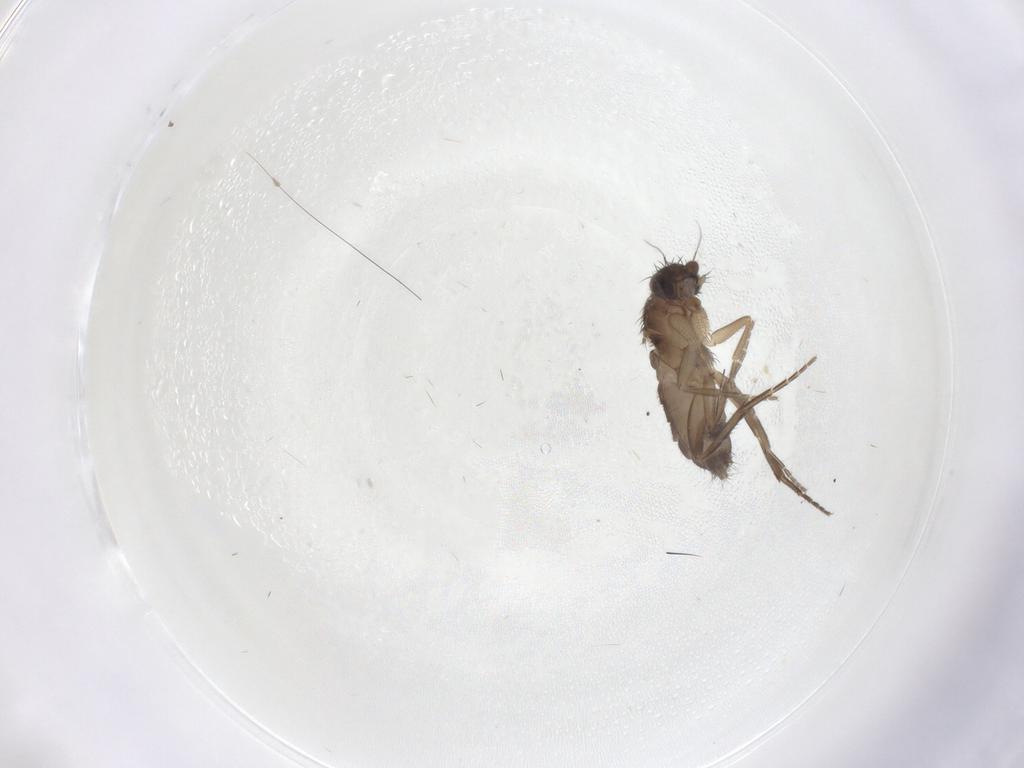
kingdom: Animalia
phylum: Arthropoda
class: Insecta
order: Diptera
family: Phoridae
